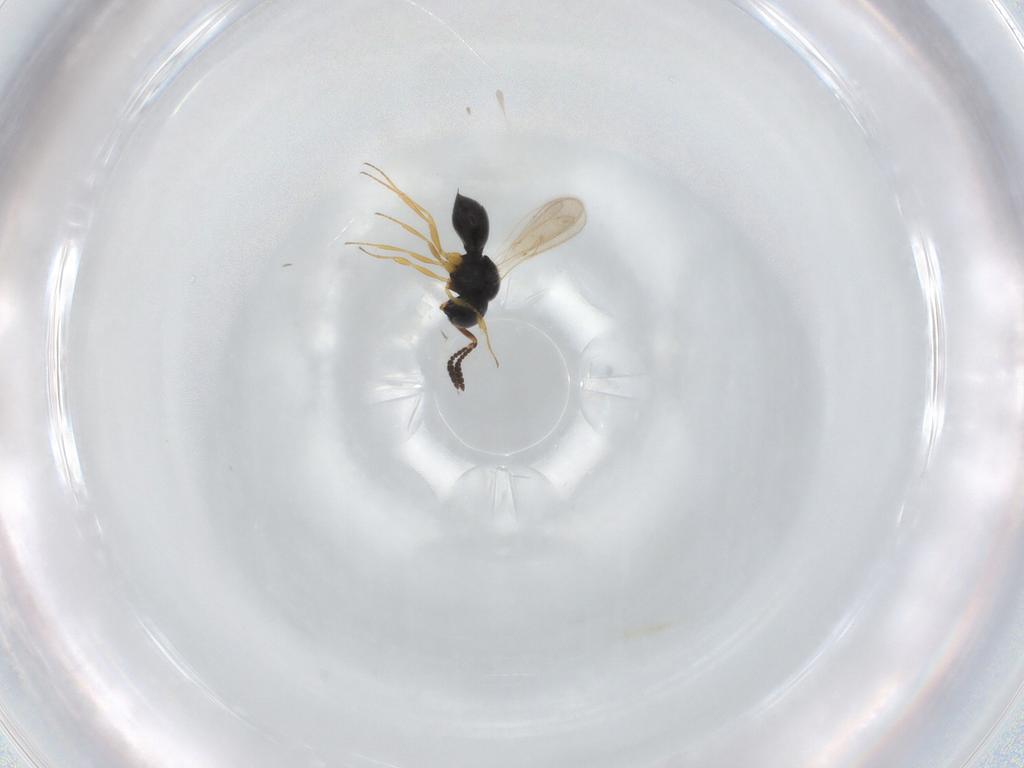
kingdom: Animalia
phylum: Arthropoda
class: Insecta
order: Hymenoptera
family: Scelionidae
